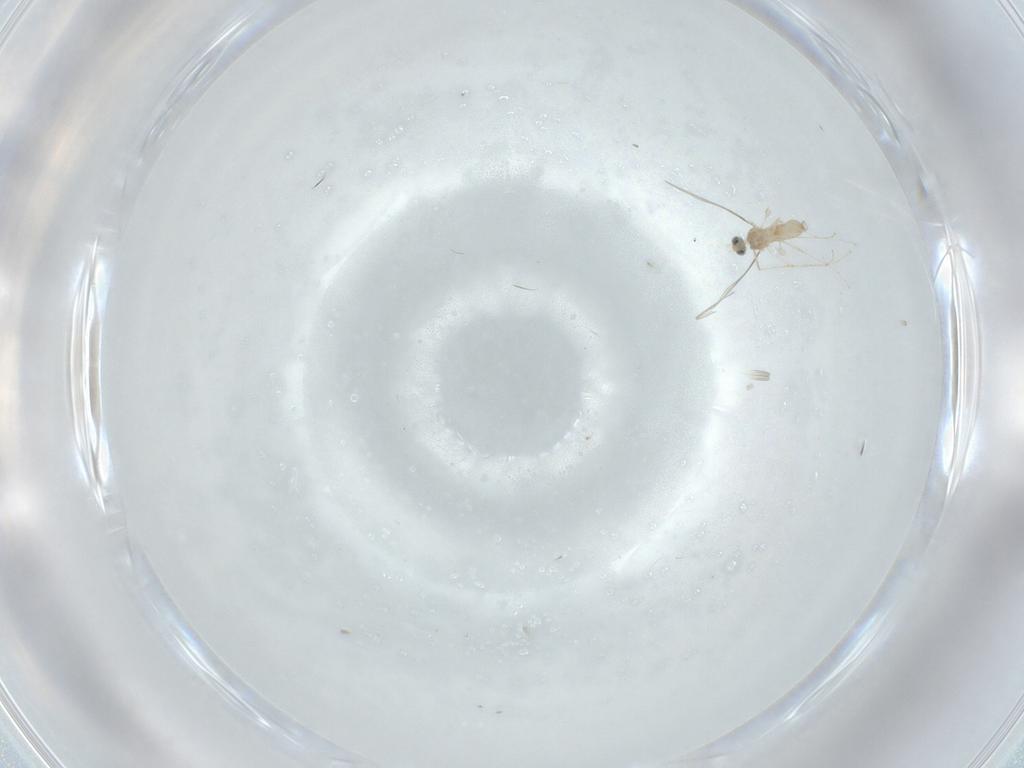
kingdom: Animalia
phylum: Arthropoda
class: Insecta
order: Diptera
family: Cecidomyiidae
